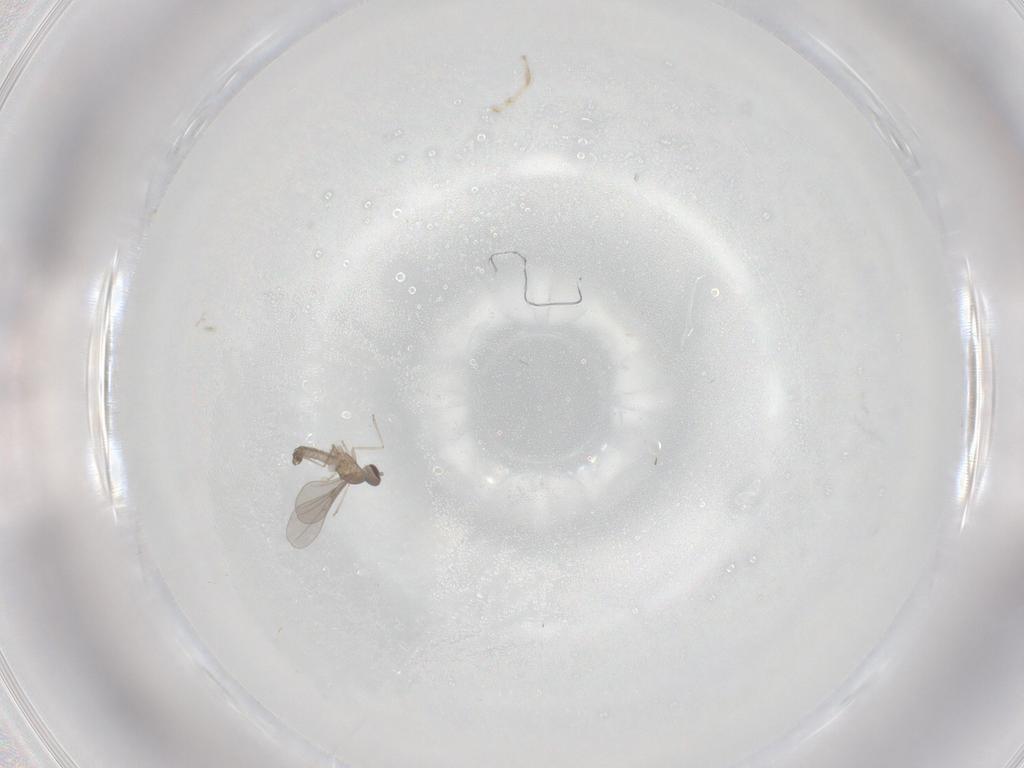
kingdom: Animalia
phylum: Arthropoda
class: Insecta
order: Diptera
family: Cecidomyiidae
